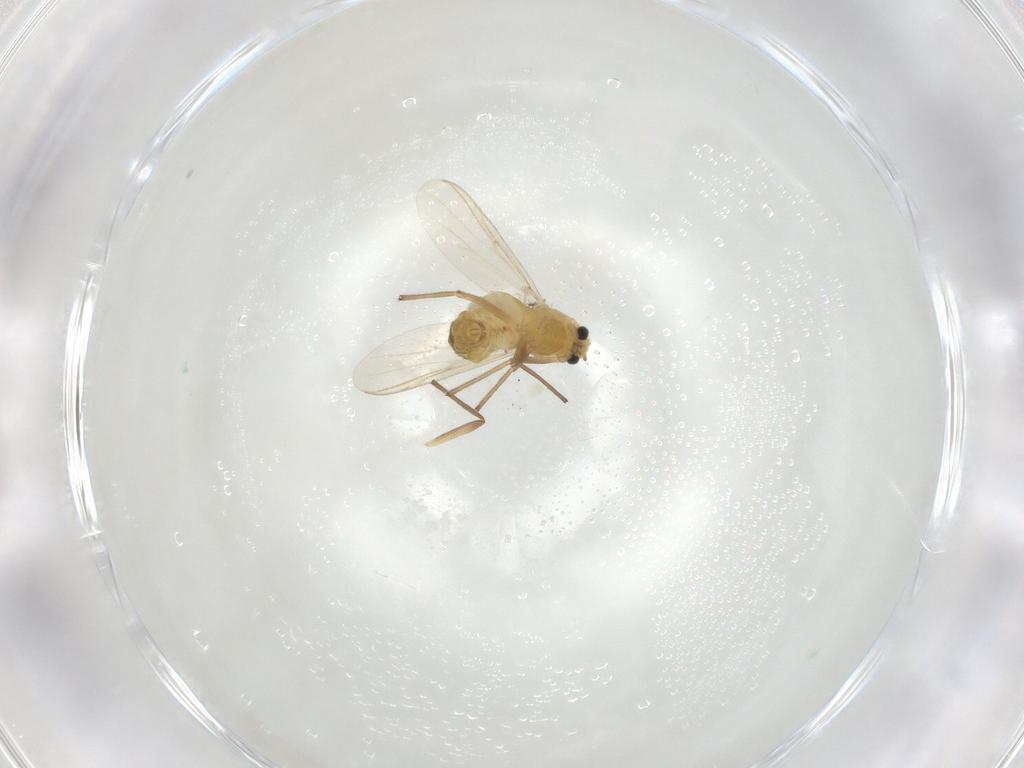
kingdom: Animalia
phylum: Arthropoda
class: Insecta
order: Diptera
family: Chironomidae
